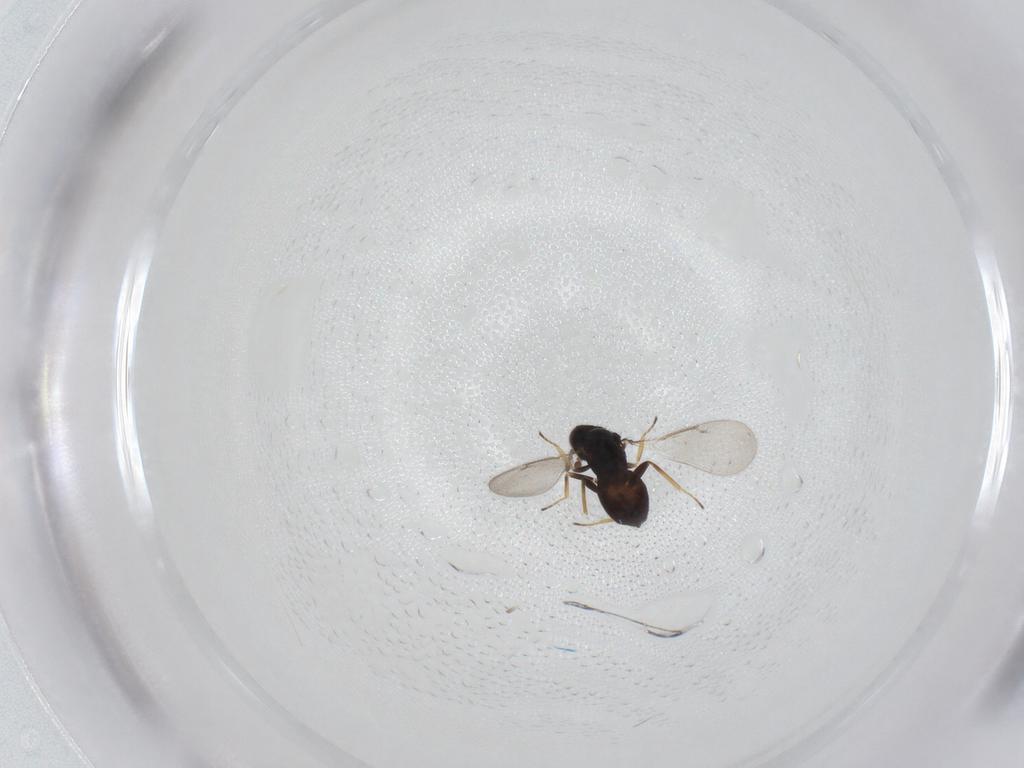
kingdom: Animalia
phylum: Arthropoda
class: Insecta
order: Hymenoptera
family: Eulophidae
